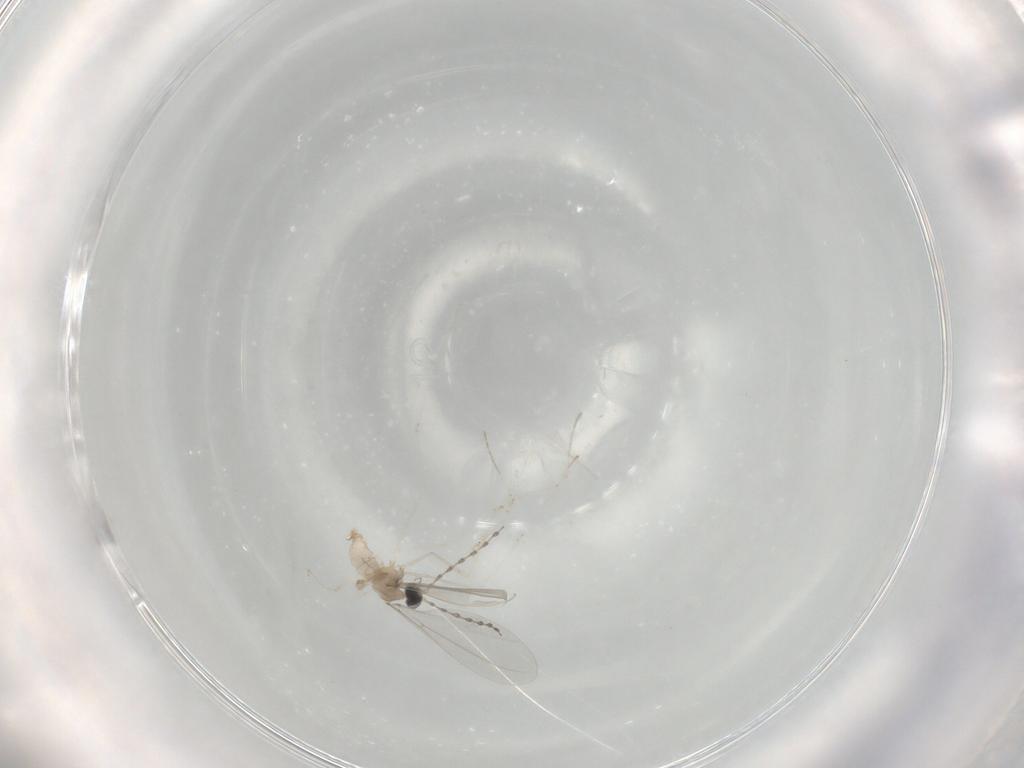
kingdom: Animalia
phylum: Arthropoda
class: Insecta
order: Diptera
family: Cecidomyiidae
